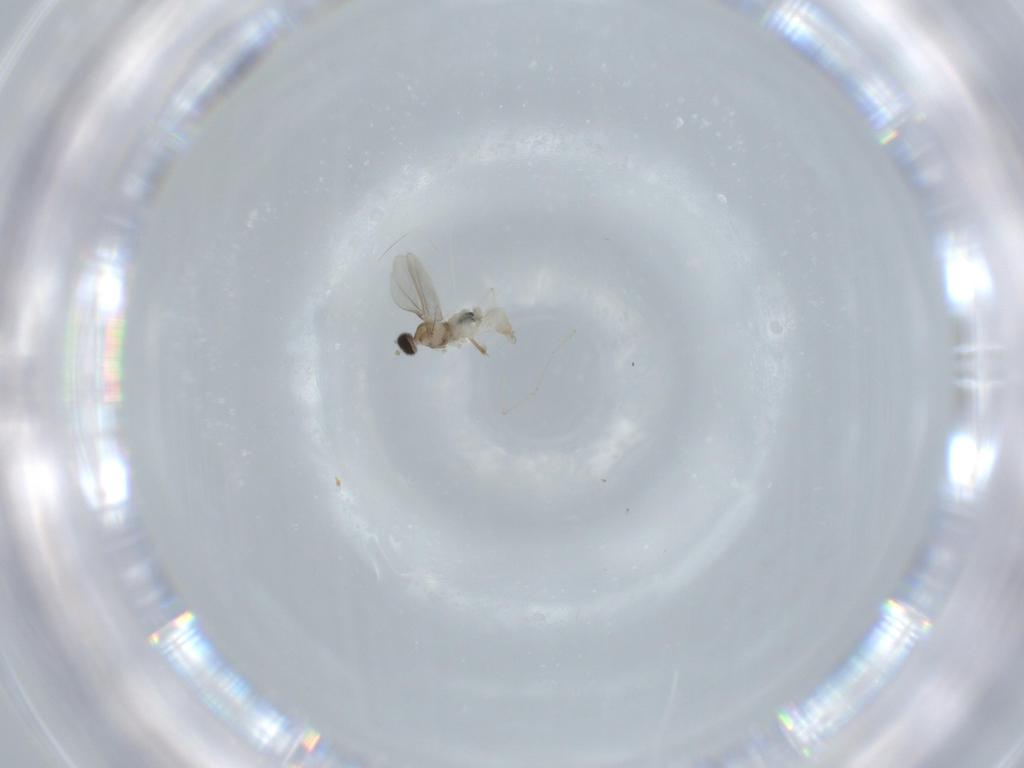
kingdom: Animalia
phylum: Arthropoda
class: Insecta
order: Diptera
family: Cecidomyiidae
